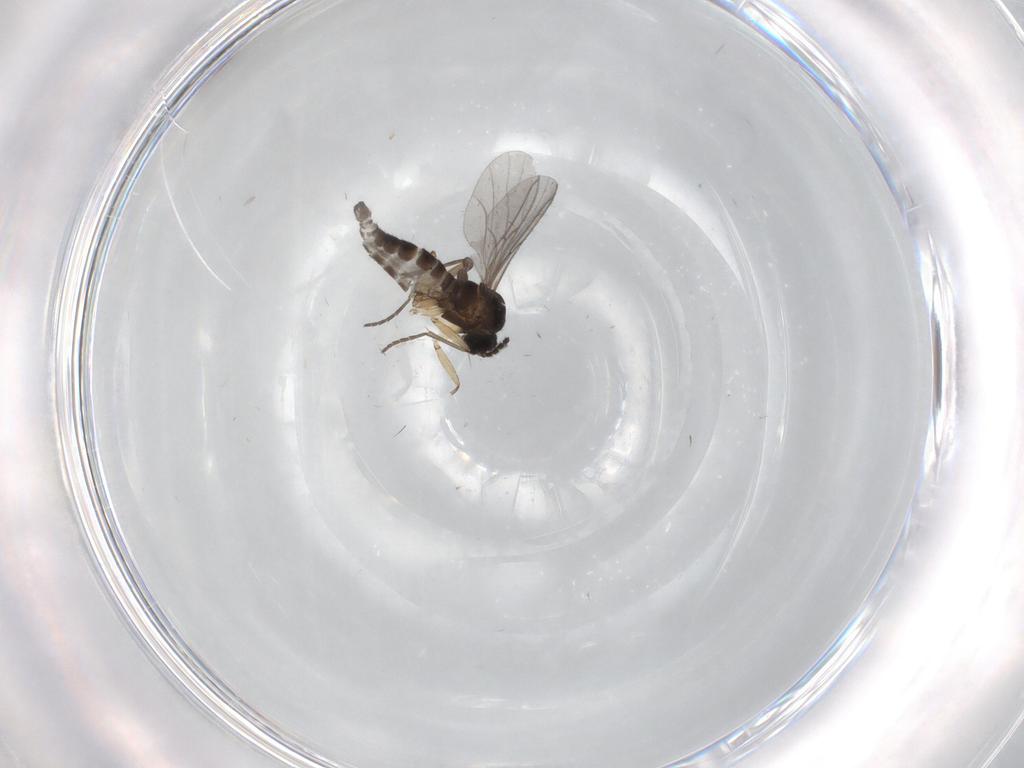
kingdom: Animalia
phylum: Arthropoda
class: Insecta
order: Diptera
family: Sciaridae
